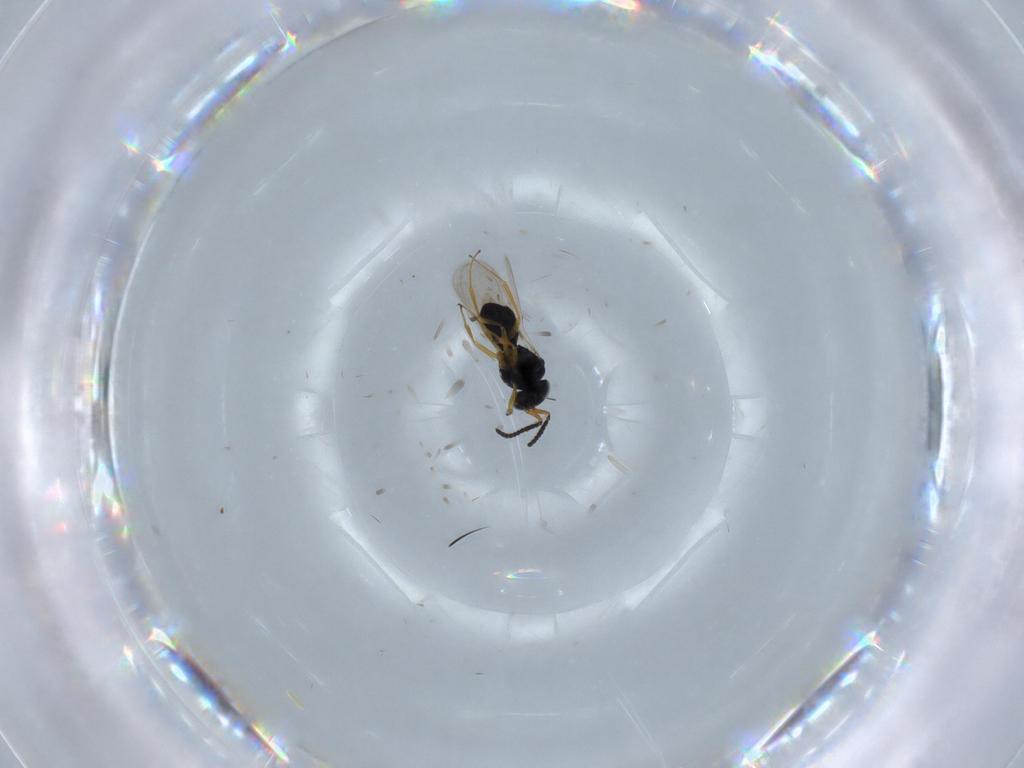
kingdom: Animalia
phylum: Arthropoda
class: Insecta
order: Hymenoptera
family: Scelionidae
